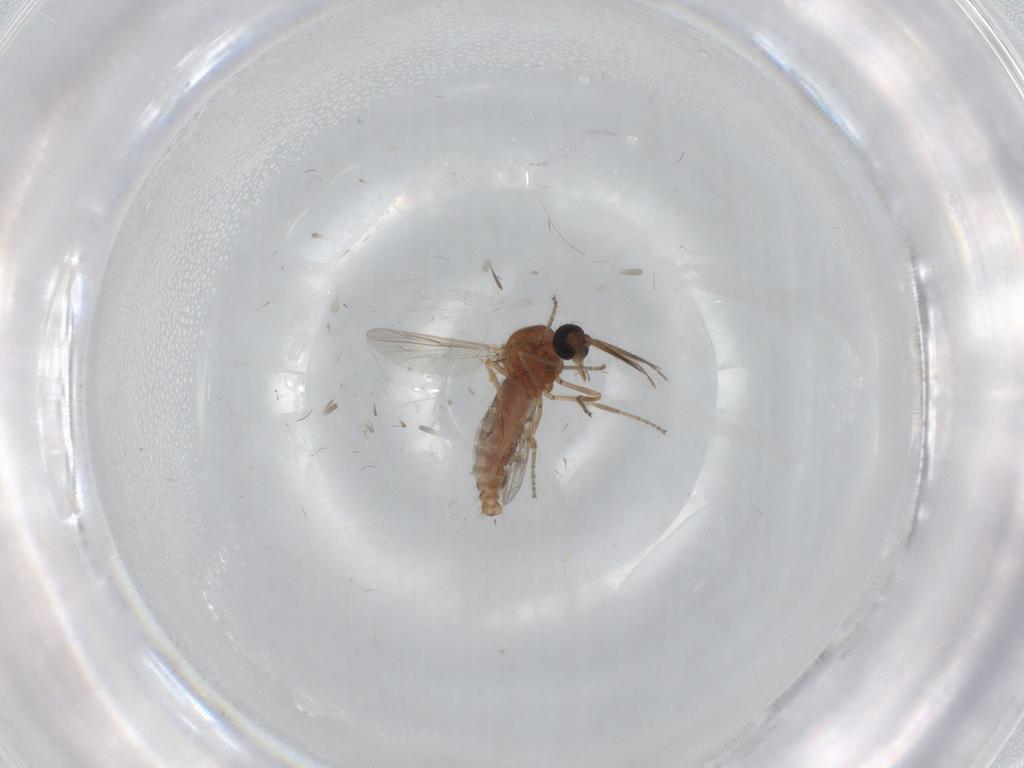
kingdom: Animalia
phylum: Arthropoda
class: Insecta
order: Diptera
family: Ceratopogonidae
